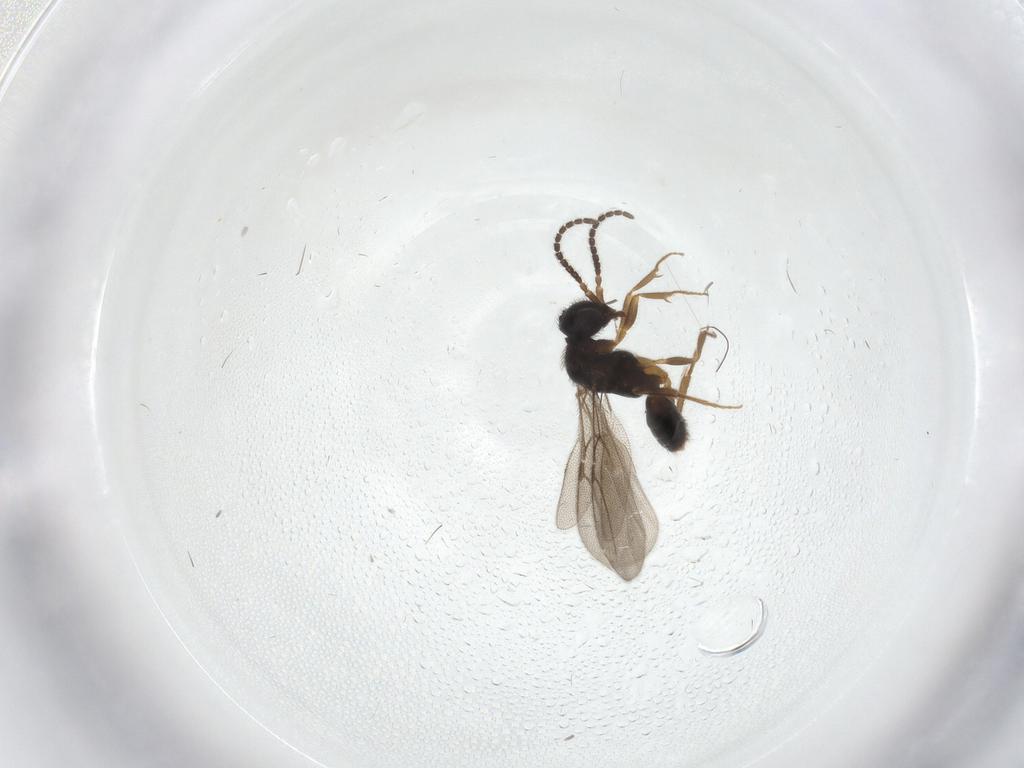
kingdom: Animalia
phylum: Arthropoda
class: Insecta
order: Hymenoptera
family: Bethylidae
